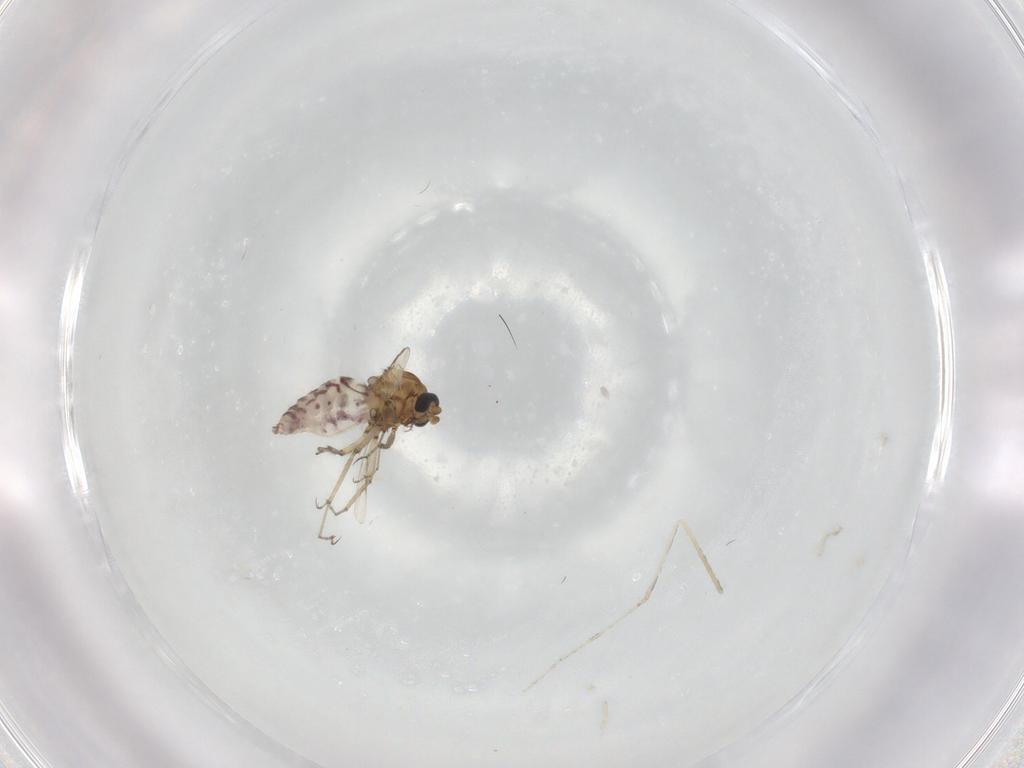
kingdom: Animalia
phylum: Arthropoda
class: Insecta
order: Diptera
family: Ceratopogonidae
